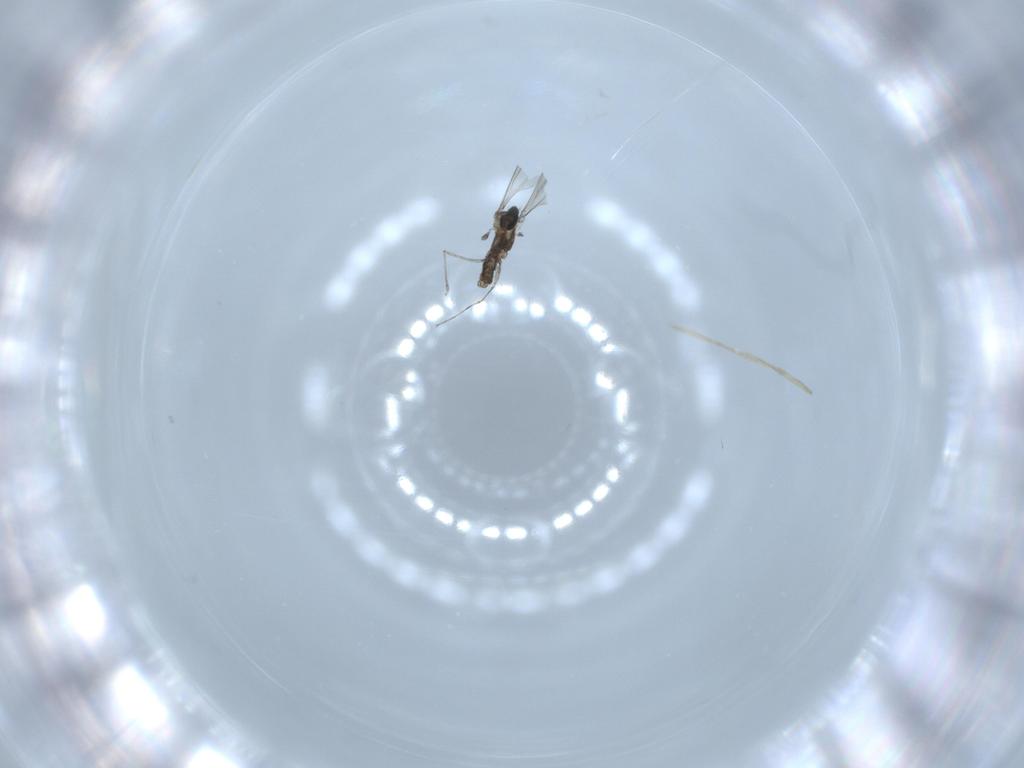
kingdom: Animalia
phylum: Arthropoda
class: Insecta
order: Diptera
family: Cecidomyiidae
